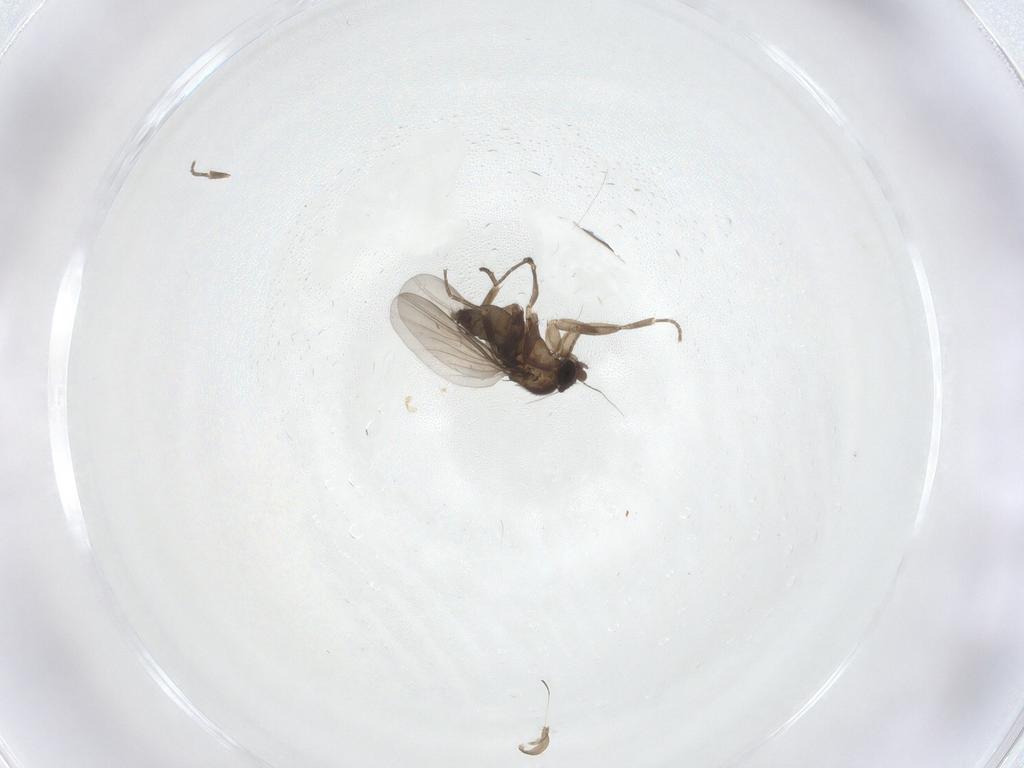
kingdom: Animalia
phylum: Arthropoda
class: Insecta
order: Diptera
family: Phoridae
